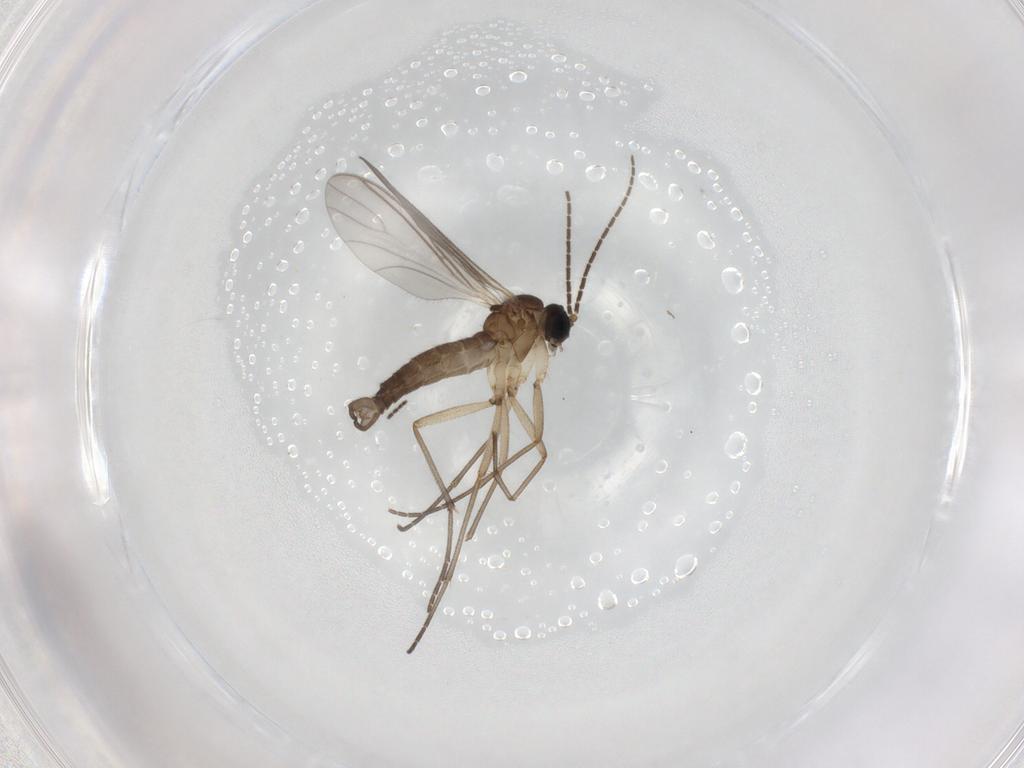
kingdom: Animalia
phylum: Arthropoda
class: Insecta
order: Diptera
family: Sciaridae
